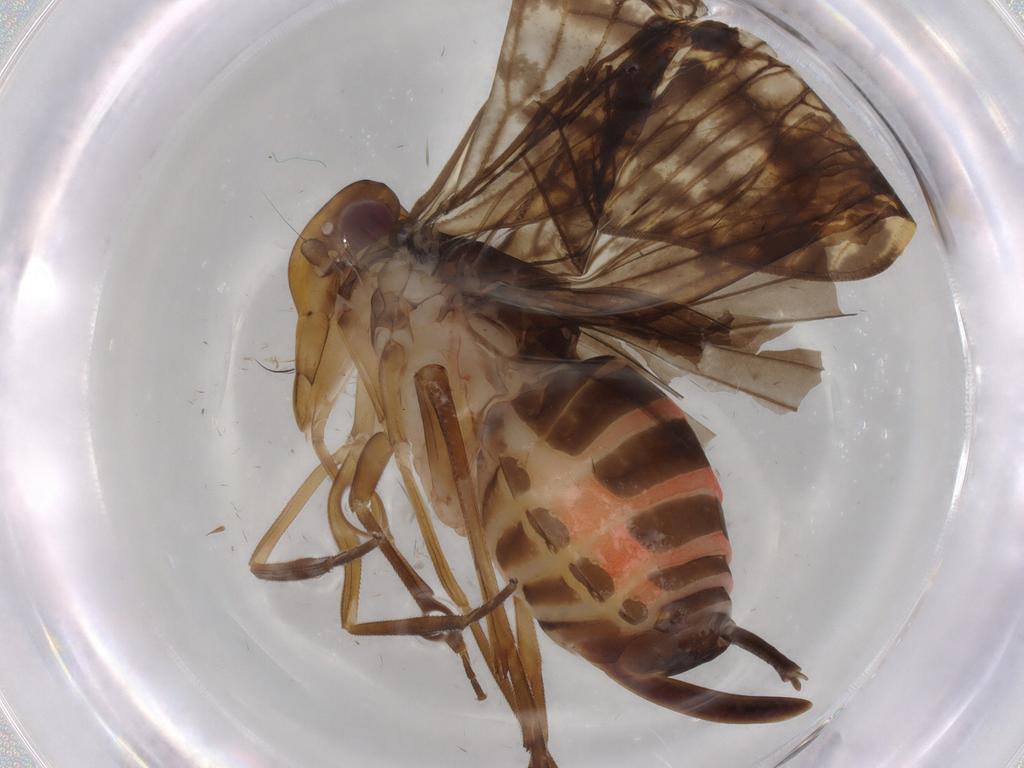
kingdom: Animalia
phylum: Arthropoda
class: Insecta
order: Hemiptera
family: Cicadellidae
